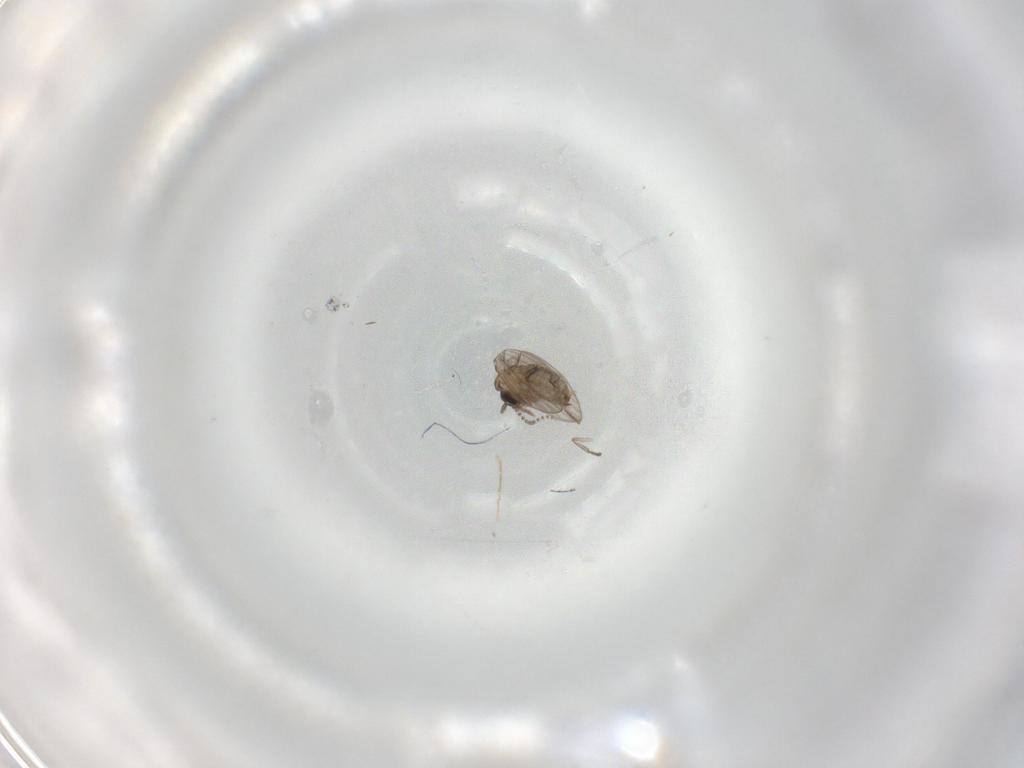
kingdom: Animalia
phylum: Arthropoda
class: Insecta
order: Diptera
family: Psychodidae
